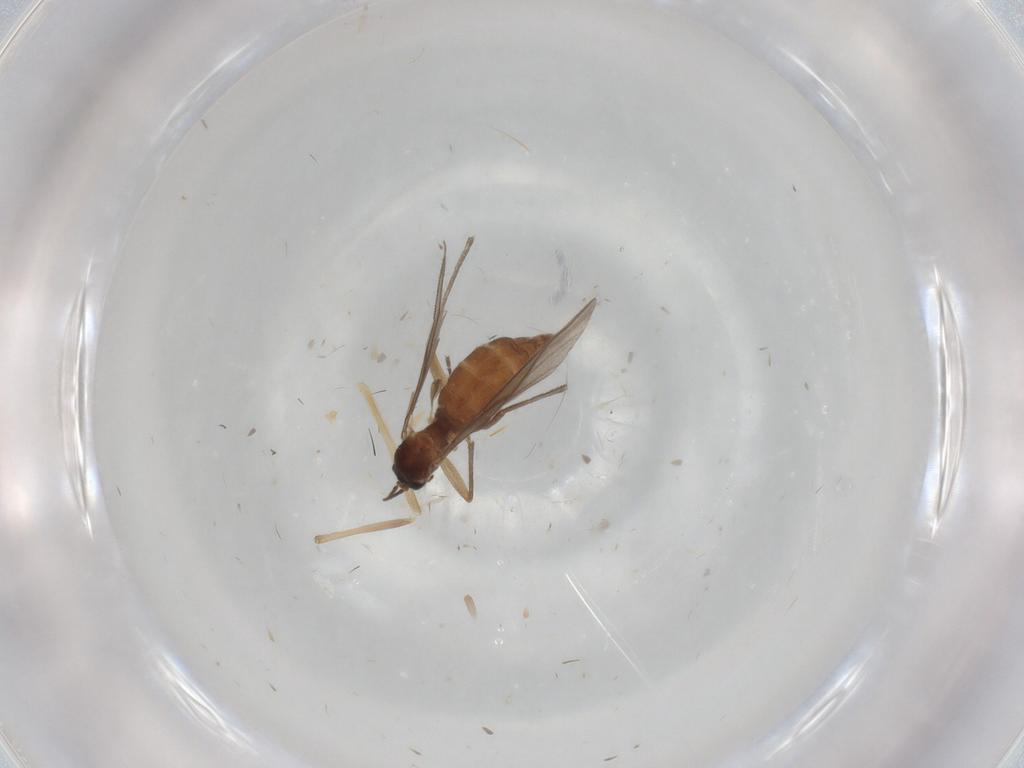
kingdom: Animalia
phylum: Arthropoda
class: Insecta
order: Diptera
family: Sciaridae
